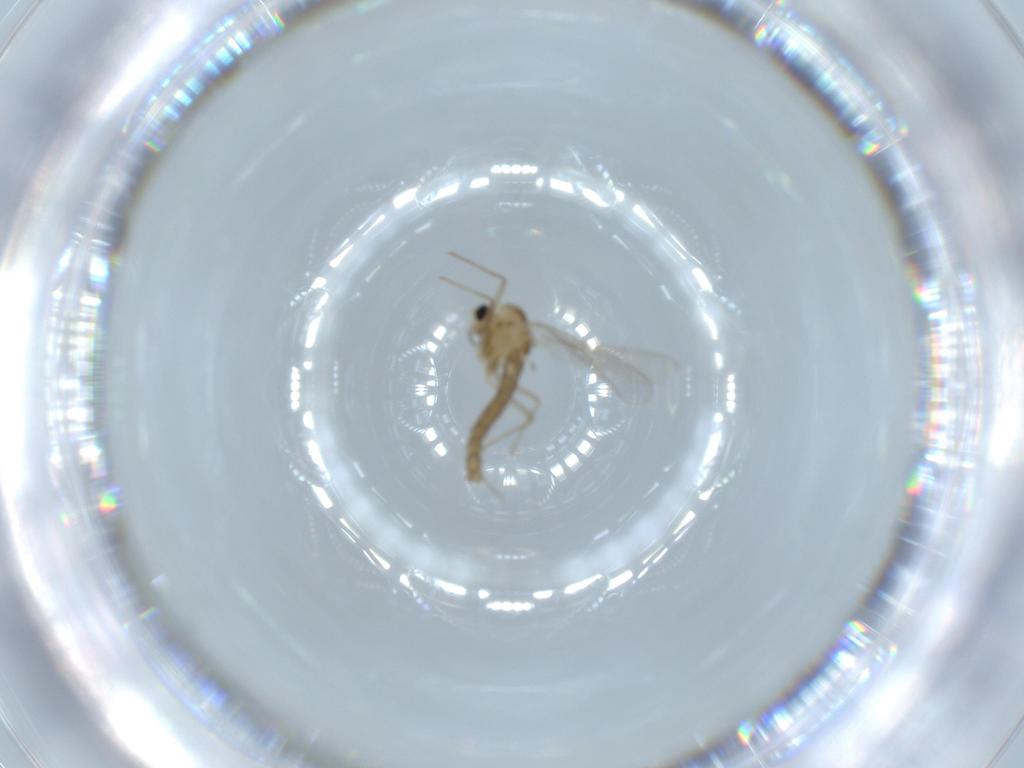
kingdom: Animalia
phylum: Arthropoda
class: Insecta
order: Diptera
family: Chironomidae
